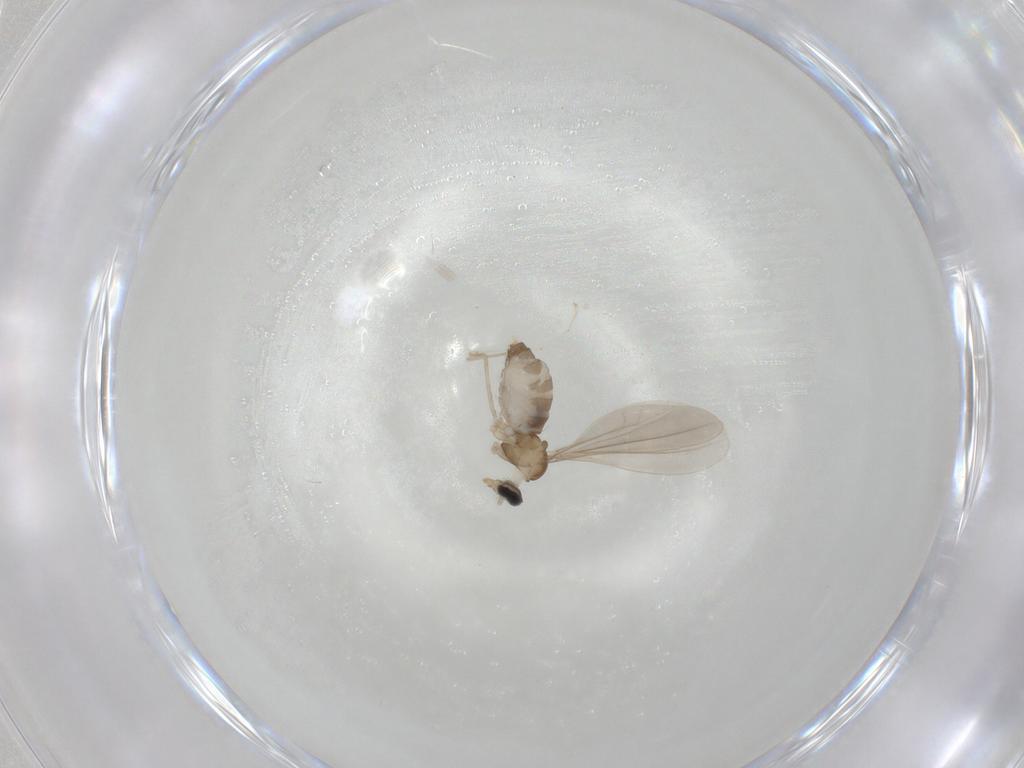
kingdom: Animalia
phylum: Arthropoda
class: Insecta
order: Diptera
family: Cecidomyiidae
